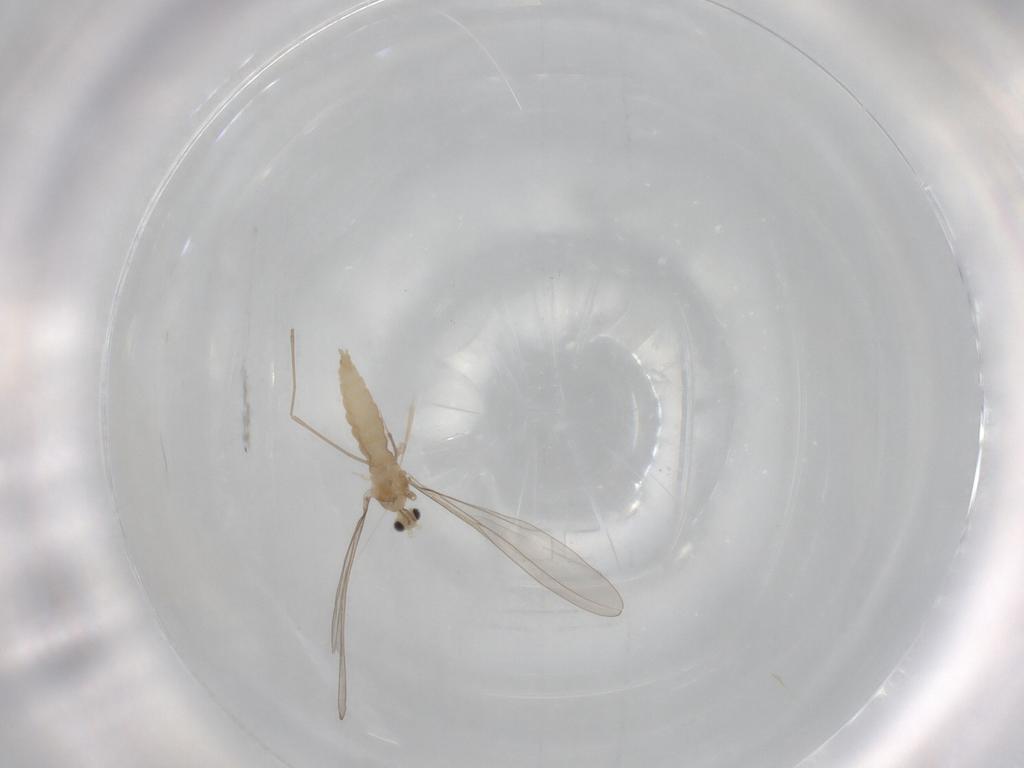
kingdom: Animalia
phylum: Arthropoda
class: Insecta
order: Diptera
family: Cecidomyiidae
